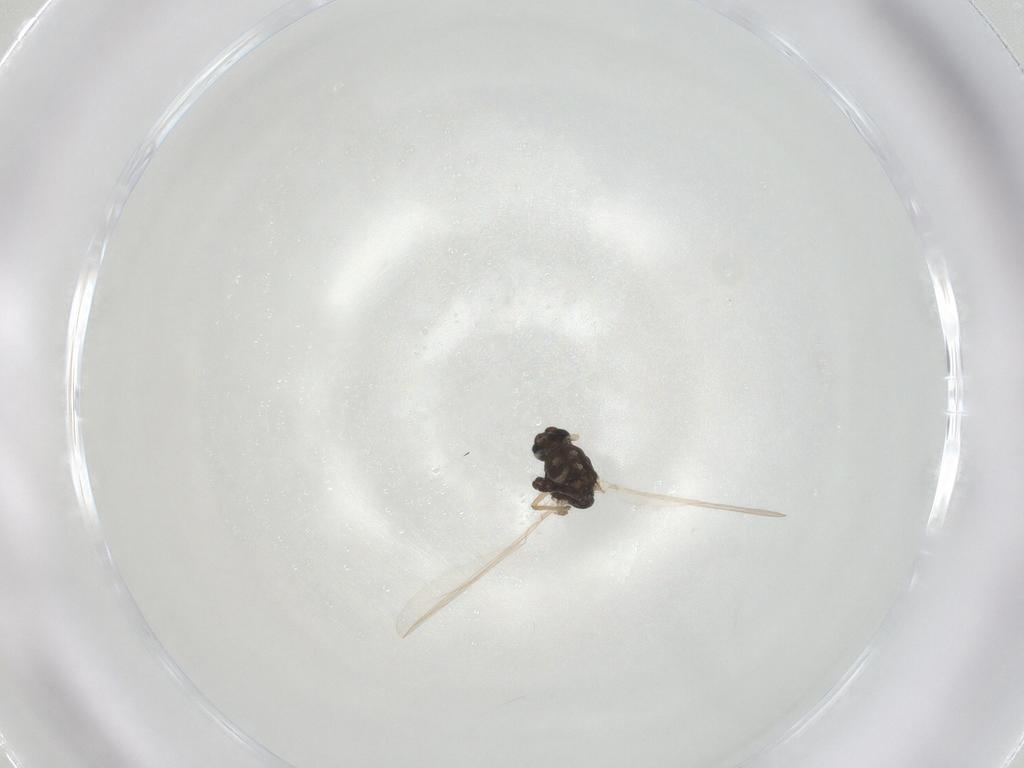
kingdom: Animalia
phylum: Arthropoda
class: Insecta
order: Diptera
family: Chironomidae
